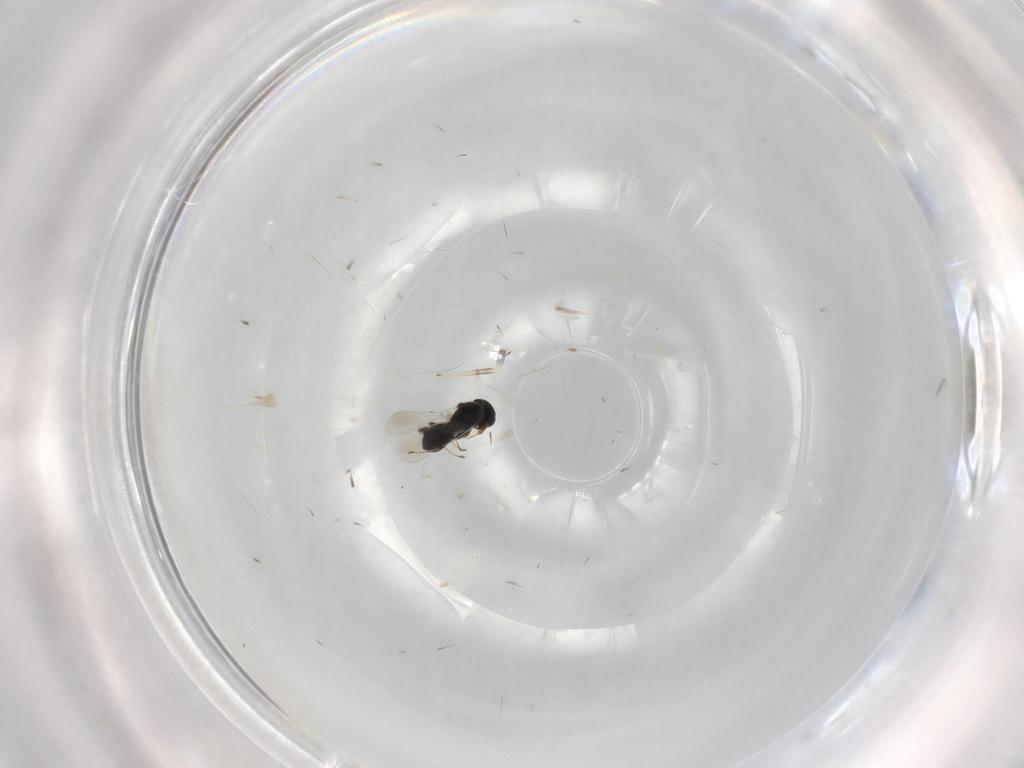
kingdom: Animalia
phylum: Arthropoda
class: Insecta
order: Hymenoptera
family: Platygastridae
